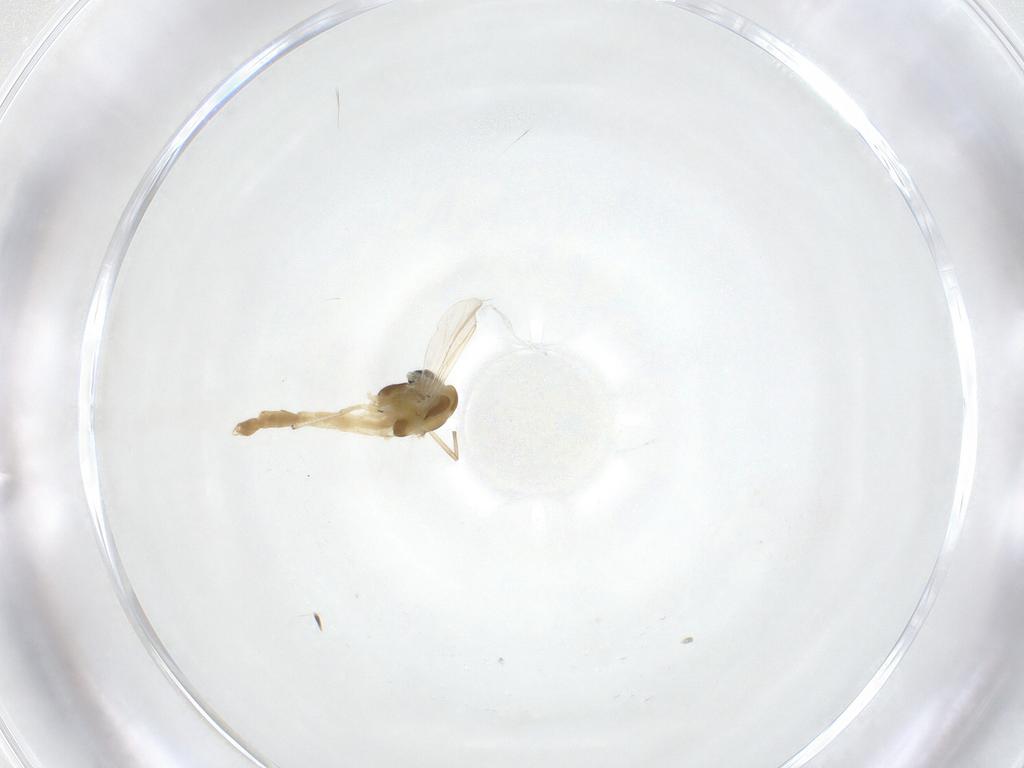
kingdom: Animalia
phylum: Arthropoda
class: Insecta
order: Diptera
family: Chironomidae
